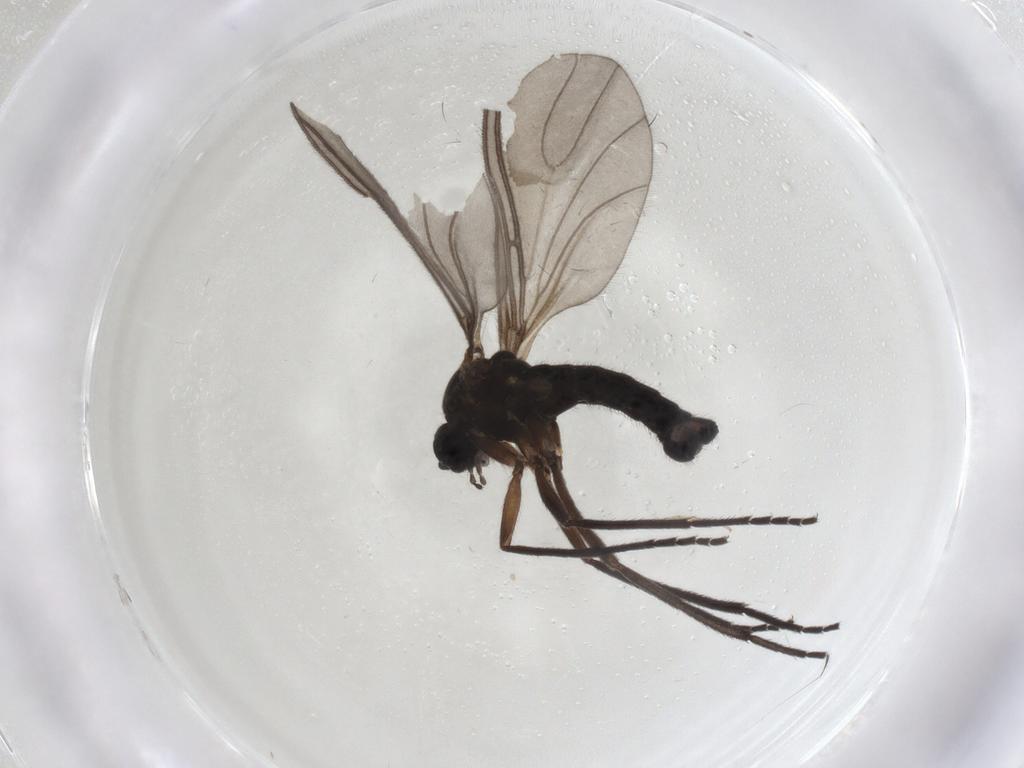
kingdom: Animalia
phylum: Arthropoda
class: Insecta
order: Diptera
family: Sciaridae
